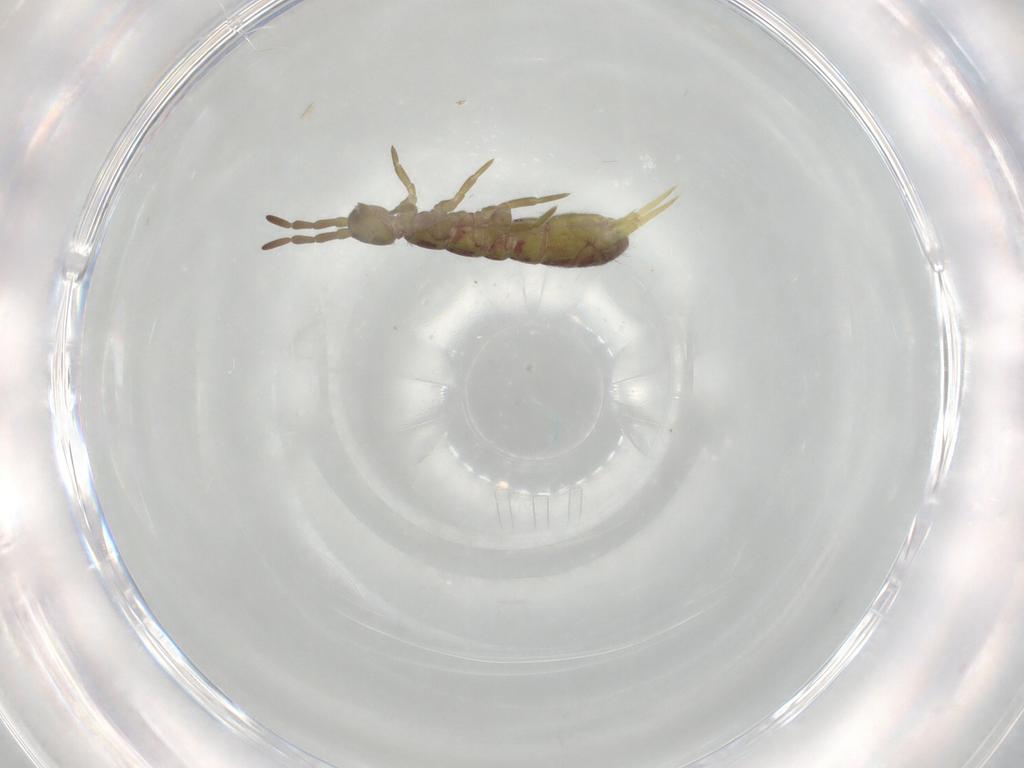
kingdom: Animalia
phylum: Arthropoda
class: Collembola
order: Entomobryomorpha
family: Isotomidae
